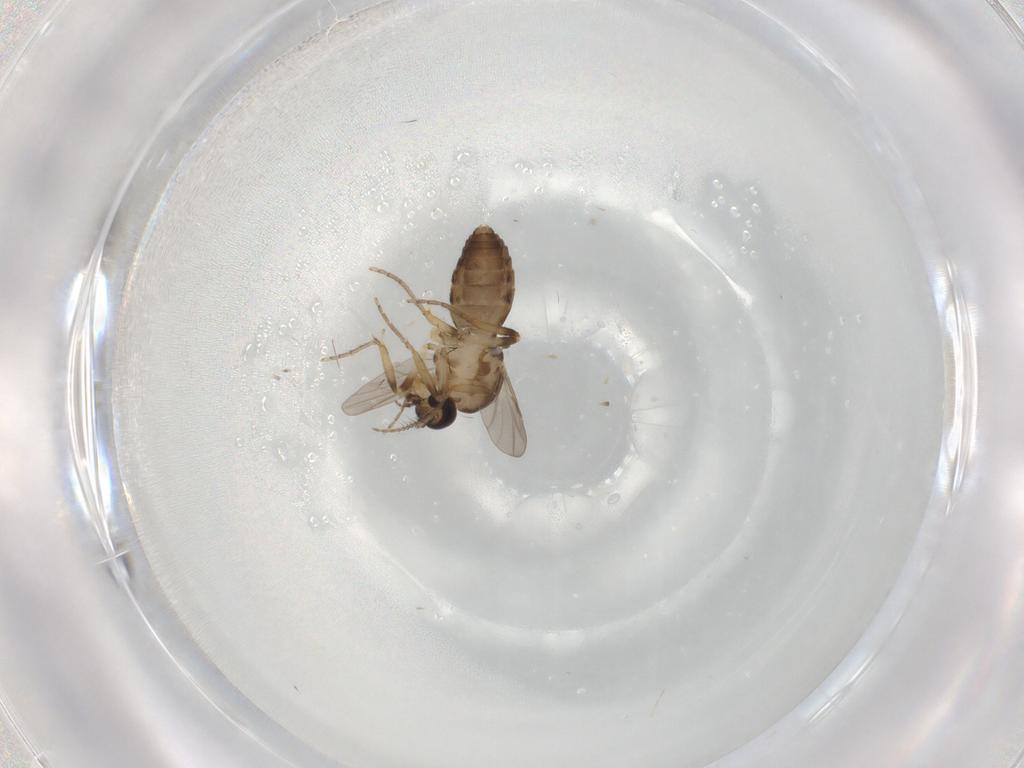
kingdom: Animalia
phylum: Arthropoda
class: Insecta
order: Diptera
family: Ceratopogonidae
